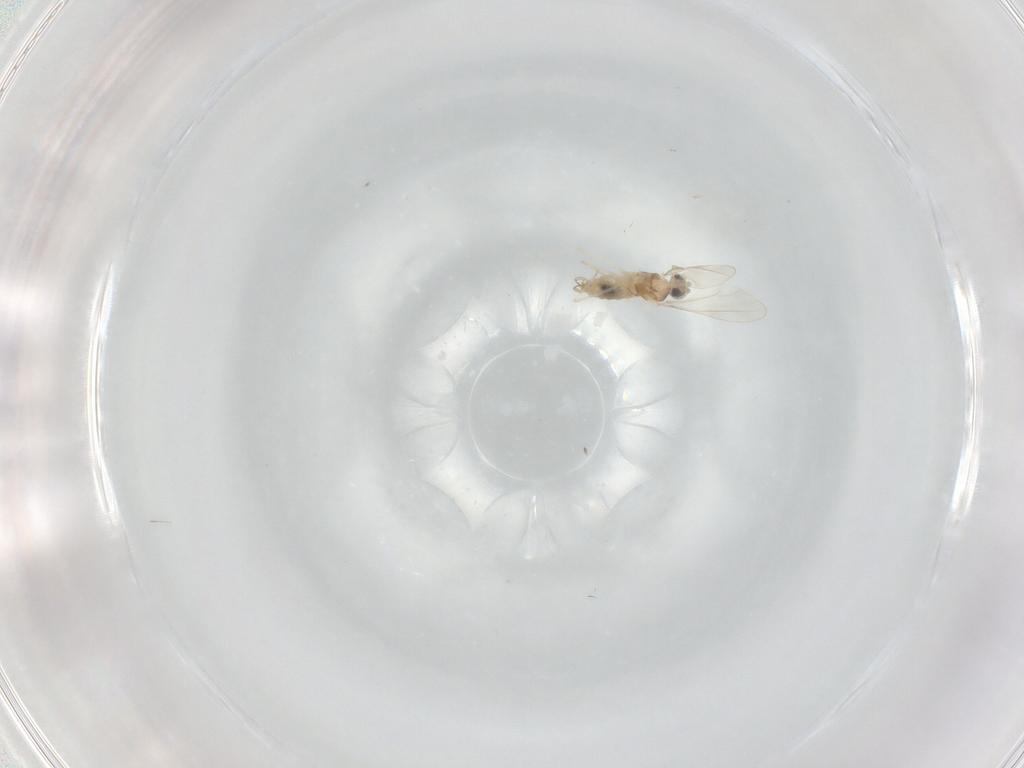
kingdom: Animalia
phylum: Arthropoda
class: Insecta
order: Diptera
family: Cecidomyiidae
